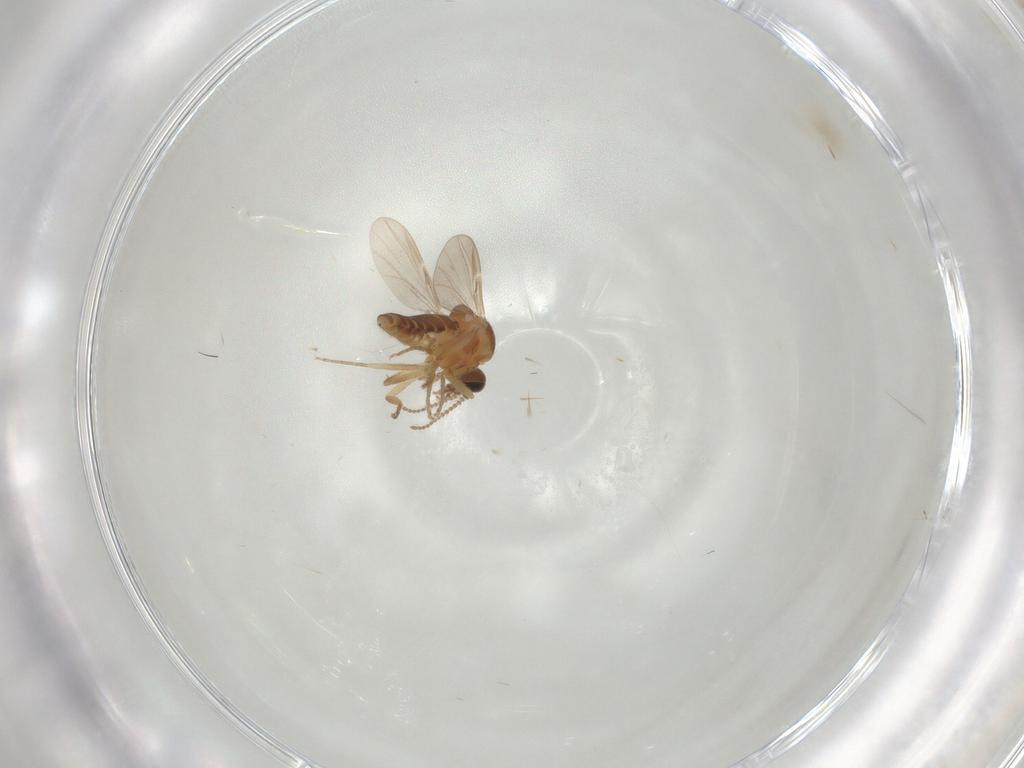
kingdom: Animalia
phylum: Arthropoda
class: Insecta
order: Diptera
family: Ceratopogonidae
